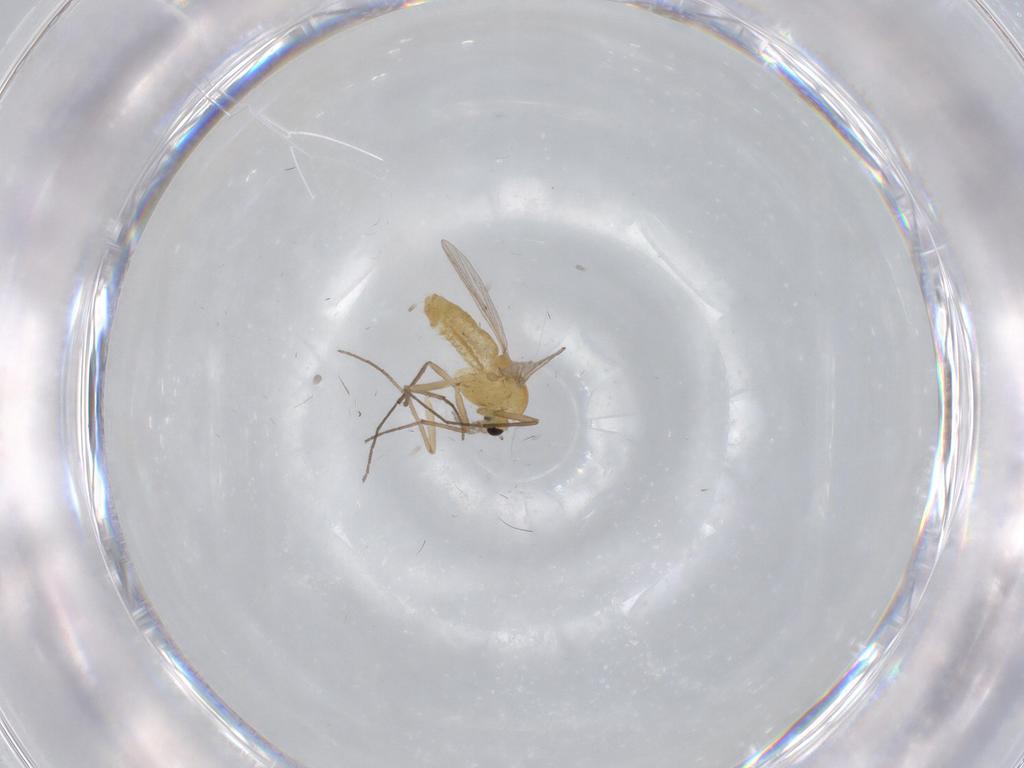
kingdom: Animalia
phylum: Arthropoda
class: Insecta
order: Diptera
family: Chironomidae
